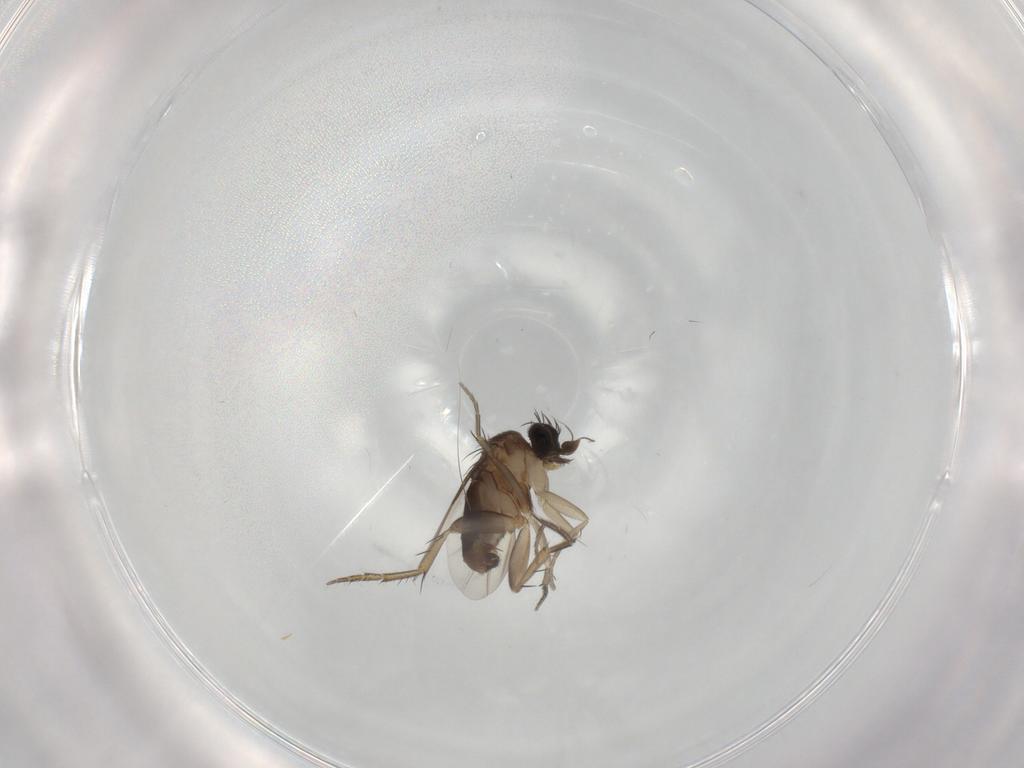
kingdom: Animalia
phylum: Arthropoda
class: Insecta
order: Diptera
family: Phoridae
